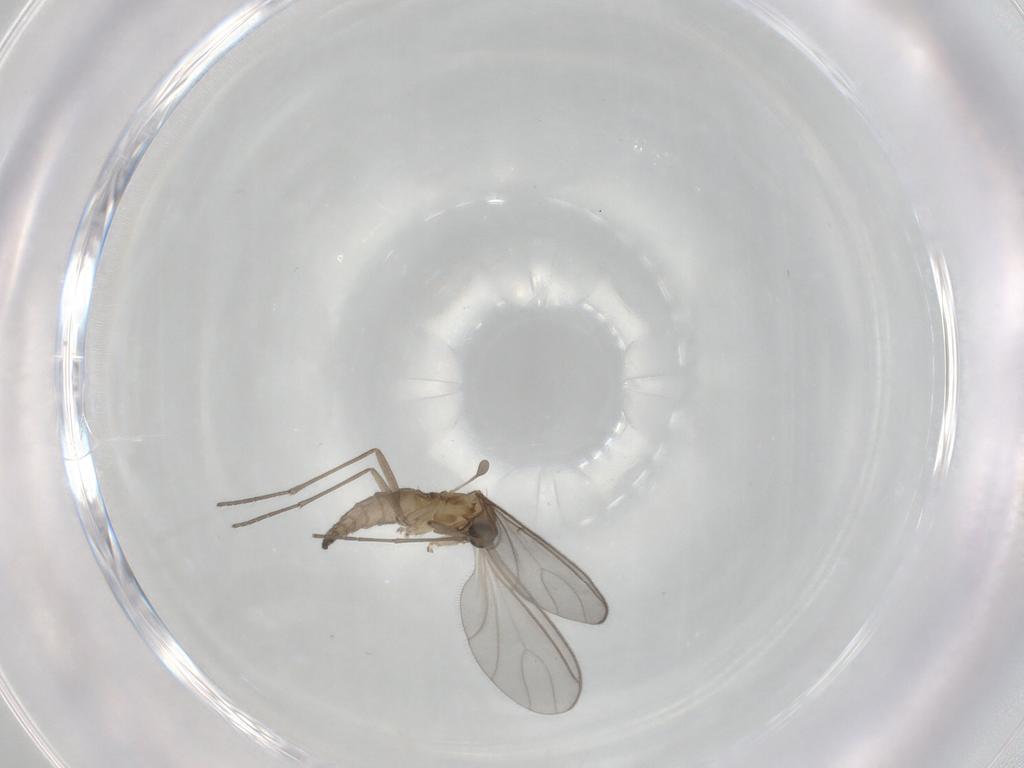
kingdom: Animalia
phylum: Arthropoda
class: Insecta
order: Diptera
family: Sciaridae
